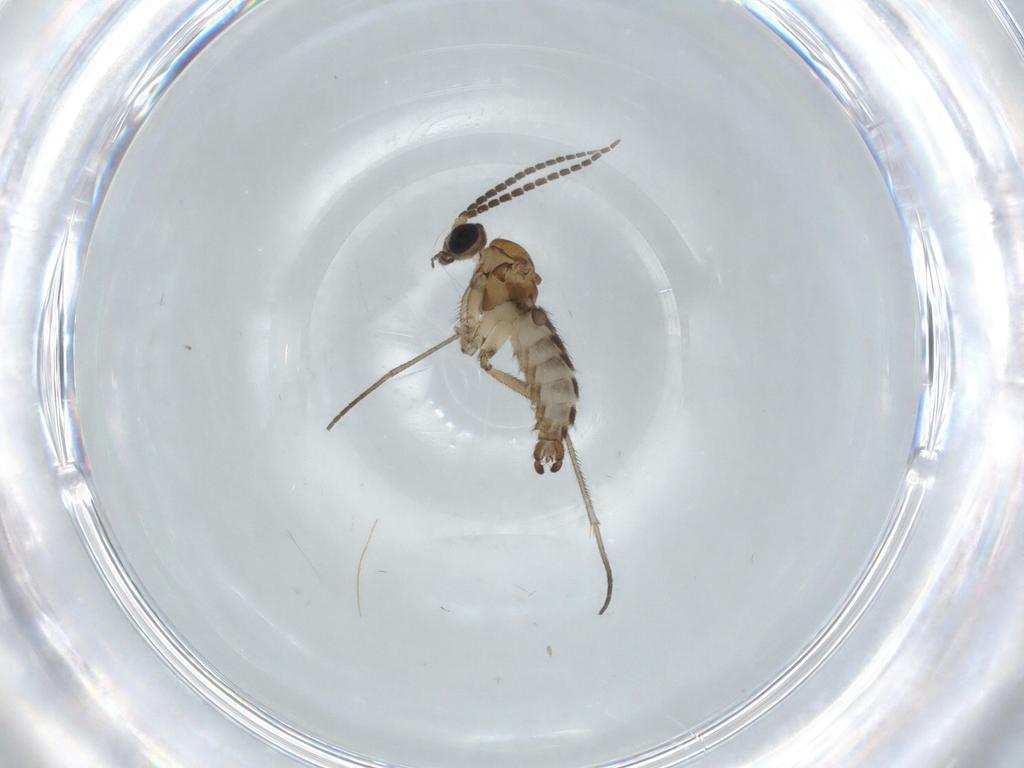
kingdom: Animalia
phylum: Arthropoda
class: Insecta
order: Diptera
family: Sciaridae
